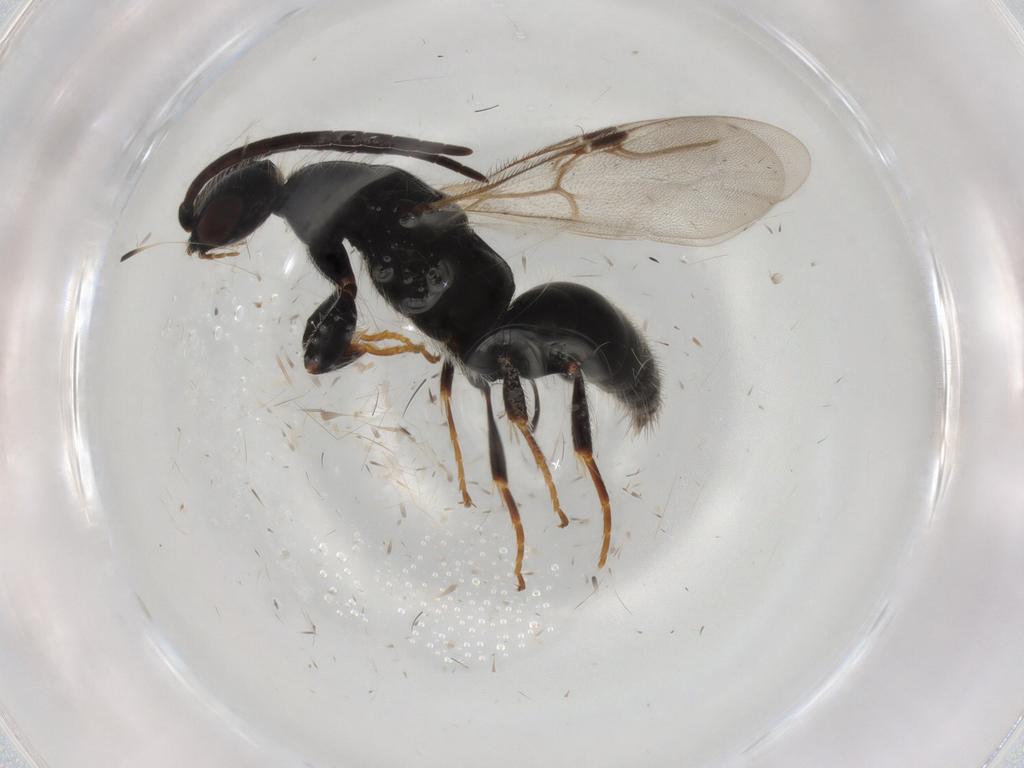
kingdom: Animalia
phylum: Arthropoda
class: Insecta
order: Hymenoptera
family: Bethylidae
